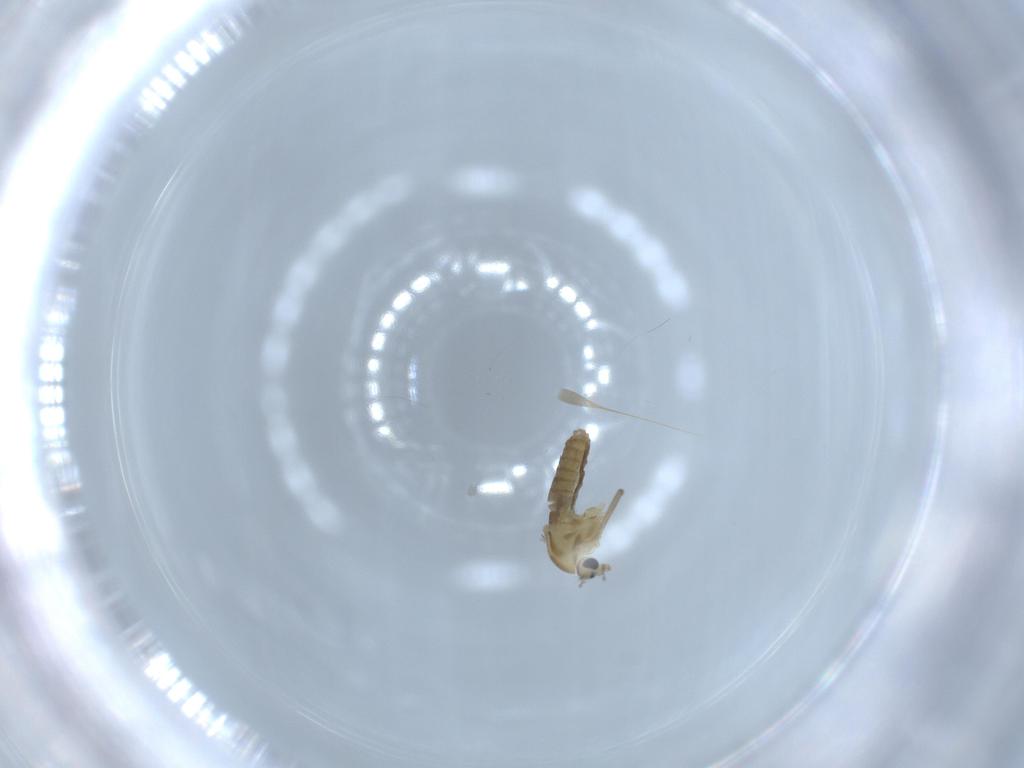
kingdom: Animalia
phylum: Arthropoda
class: Insecta
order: Diptera
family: Chironomidae
